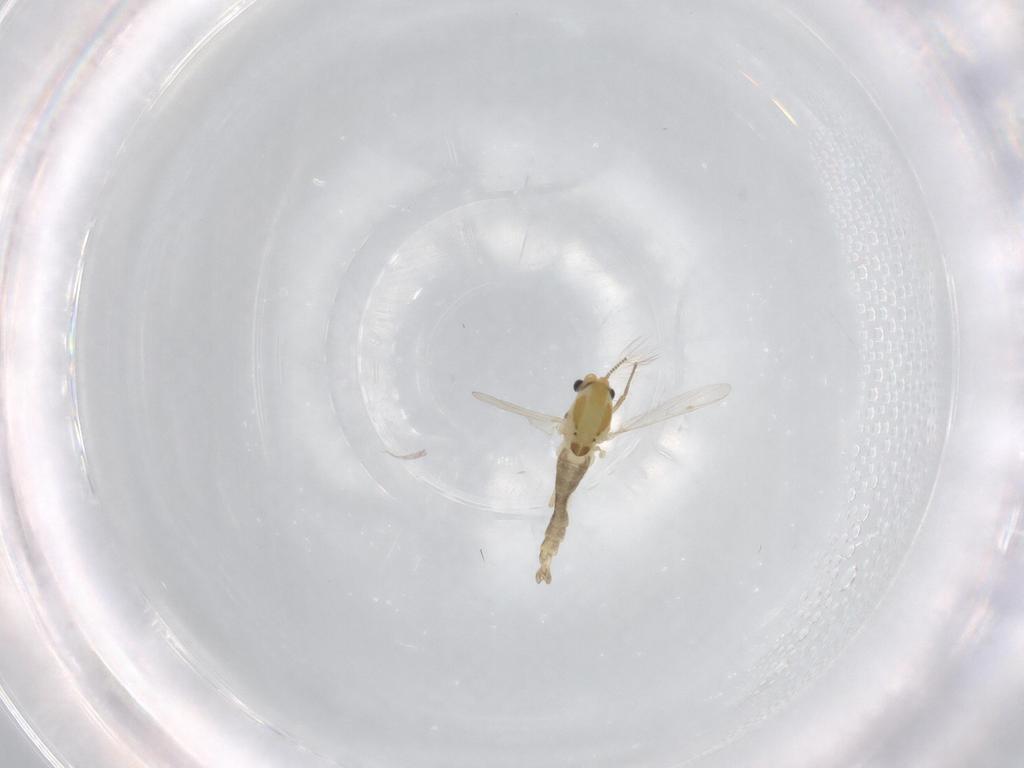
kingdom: Animalia
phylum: Arthropoda
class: Insecta
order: Diptera
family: Chironomidae
